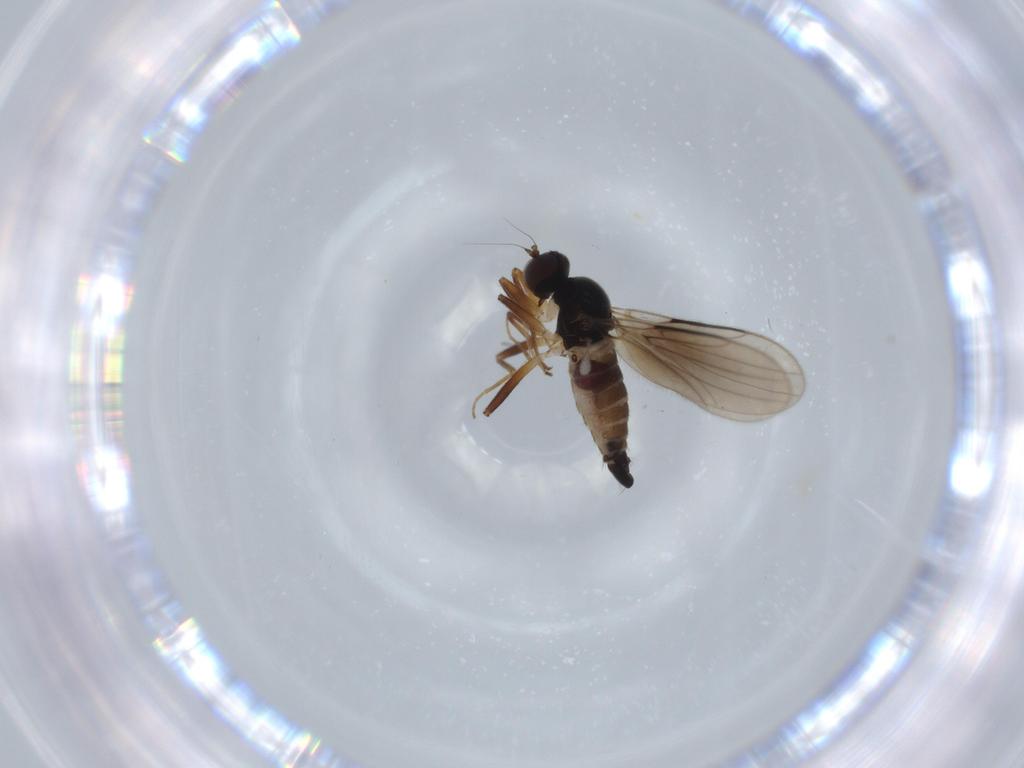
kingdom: Animalia
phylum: Arthropoda
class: Insecta
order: Diptera
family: Hybotidae
